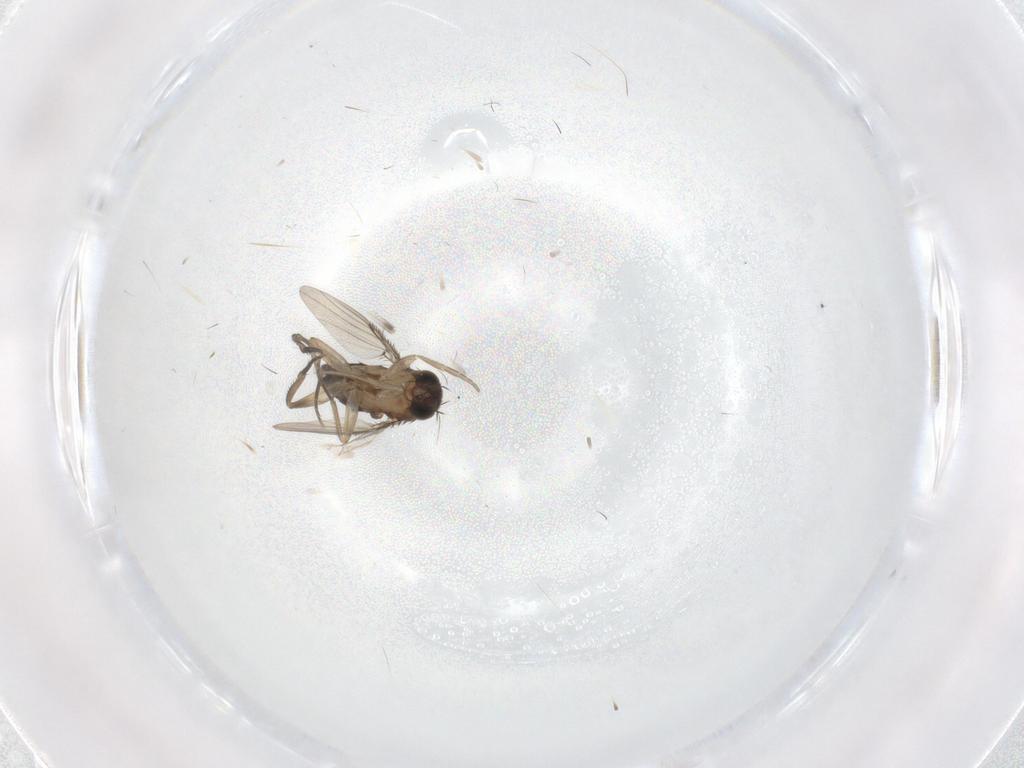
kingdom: Animalia
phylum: Arthropoda
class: Insecta
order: Diptera
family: Phoridae
